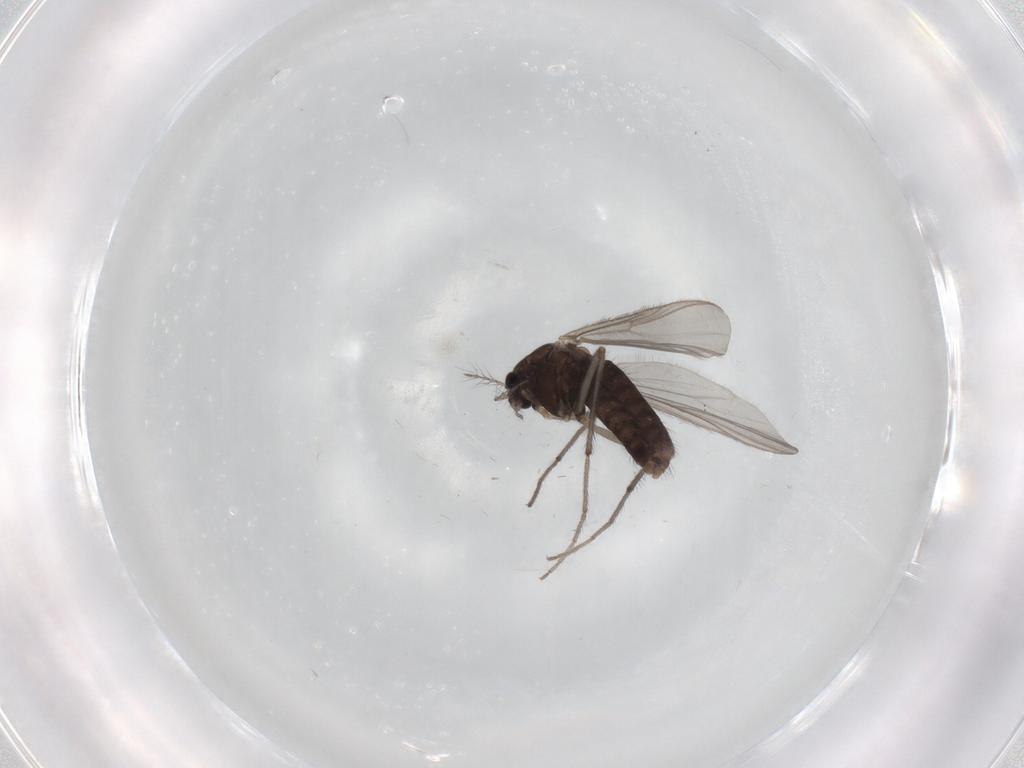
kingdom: Animalia
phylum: Arthropoda
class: Insecta
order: Diptera
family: Chironomidae
